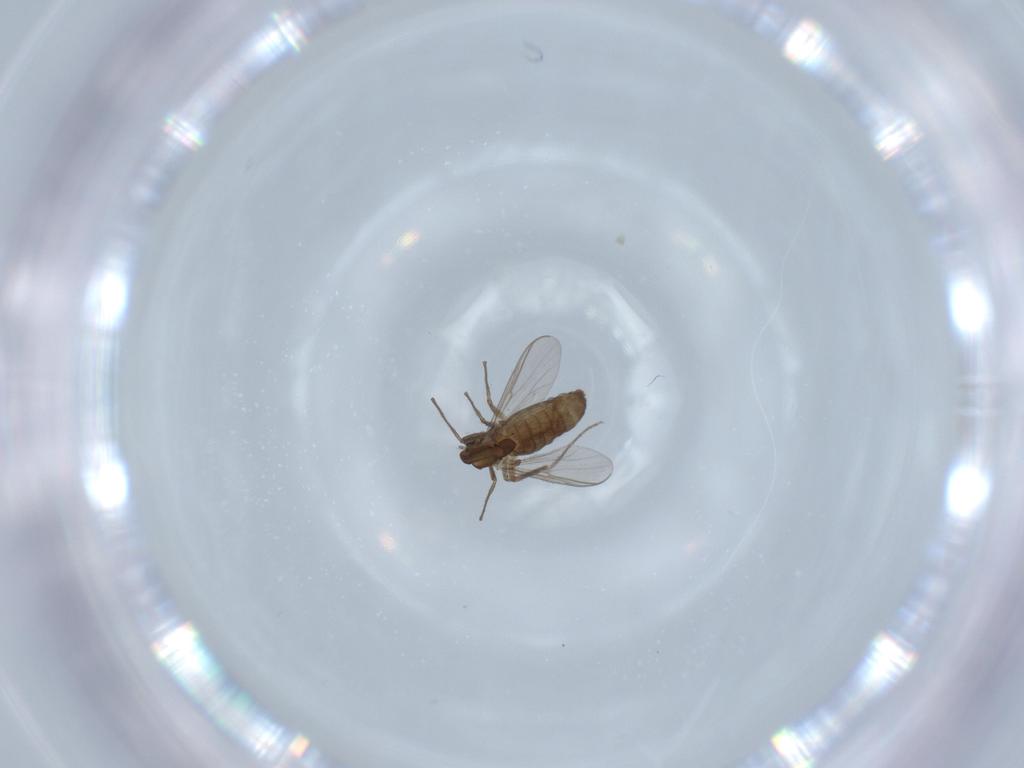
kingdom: Animalia
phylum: Arthropoda
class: Insecta
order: Diptera
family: Chironomidae
